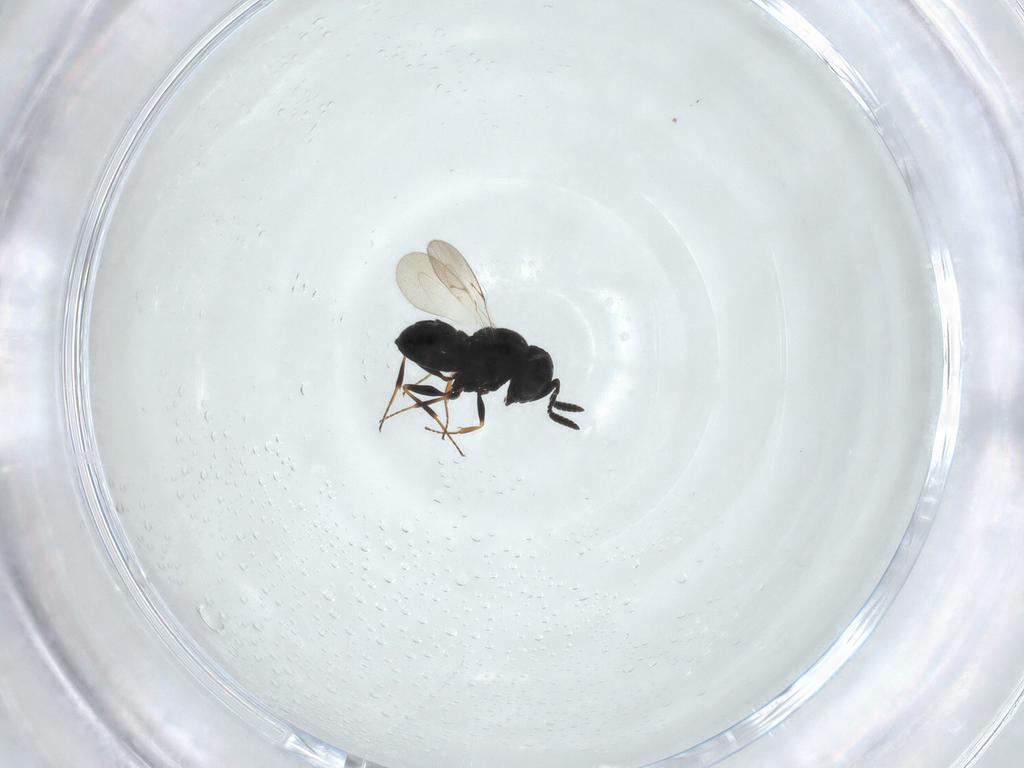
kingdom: Animalia
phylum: Arthropoda
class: Insecta
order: Hymenoptera
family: Scelionidae
